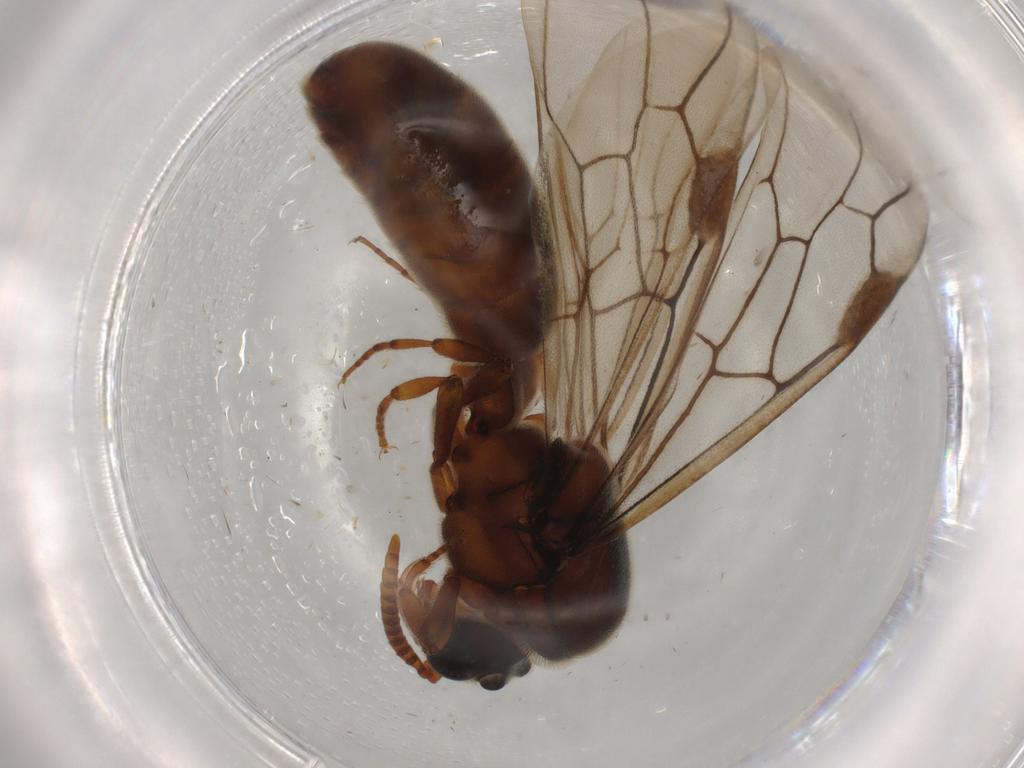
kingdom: Animalia
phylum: Arthropoda
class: Insecta
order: Hymenoptera
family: Formicidae
